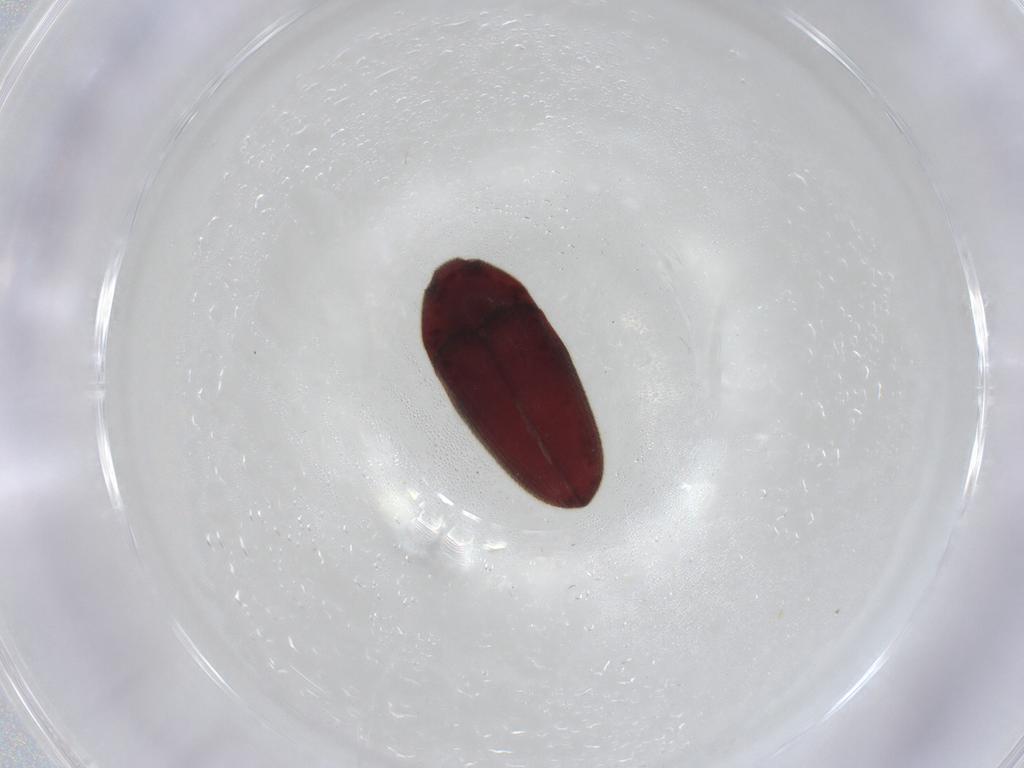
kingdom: Animalia
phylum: Arthropoda
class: Insecta
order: Coleoptera
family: Throscidae
